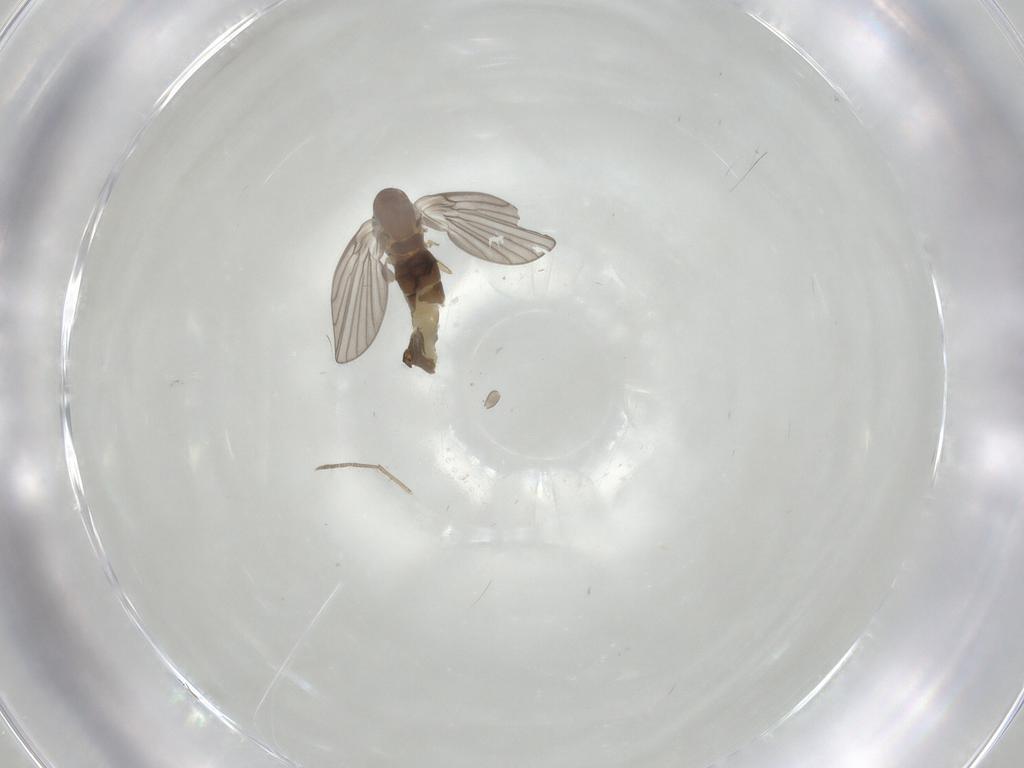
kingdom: Animalia
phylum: Arthropoda
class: Insecta
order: Diptera
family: Psychodidae
